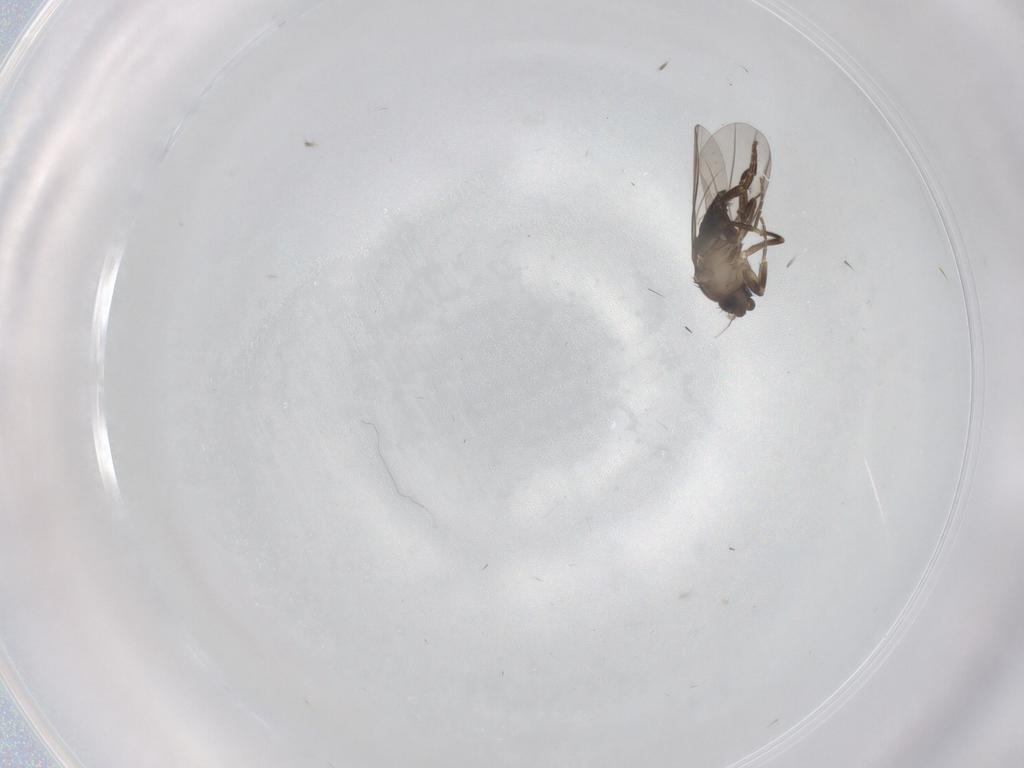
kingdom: Animalia
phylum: Arthropoda
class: Insecta
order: Diptera
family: Phoridae
